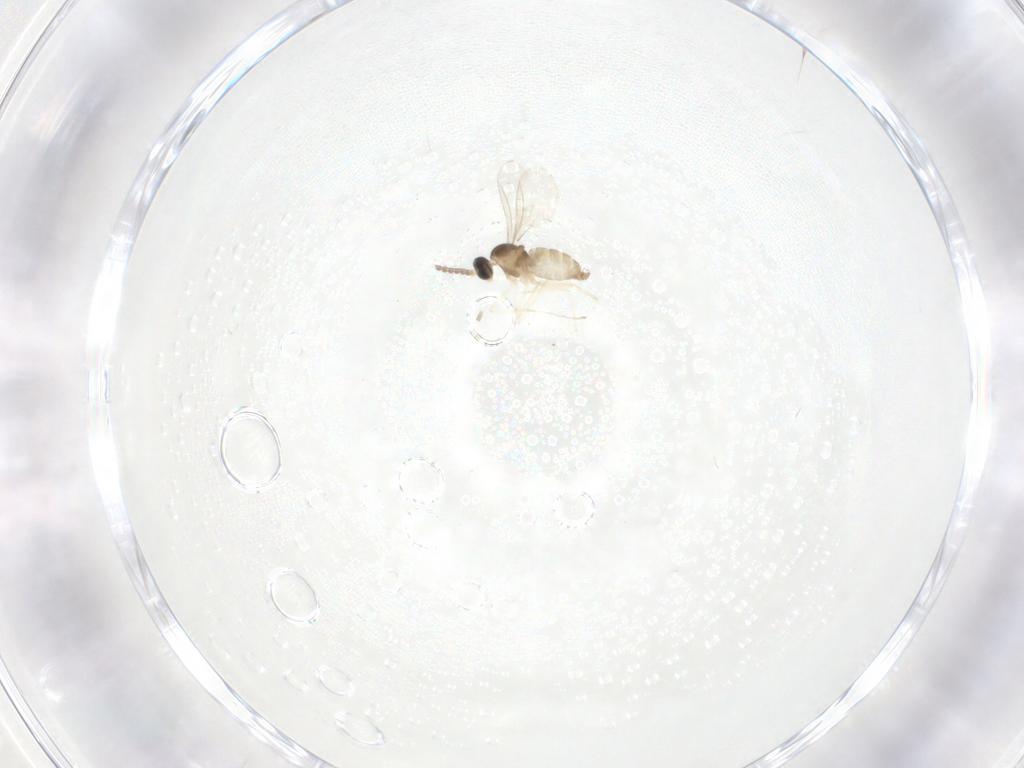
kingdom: Animalia
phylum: Arthropoda
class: Insecta
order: Diptera
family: Cecidomyiidae
